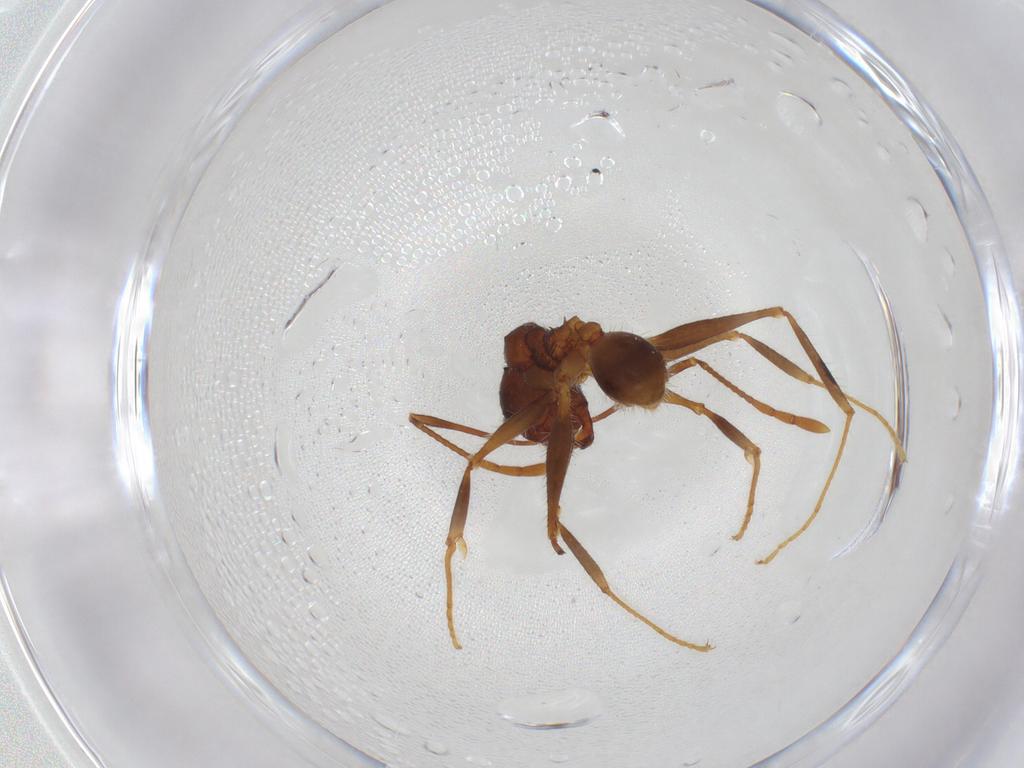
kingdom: Animalia
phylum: Arthropoda
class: Insecta
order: Hymenoptera
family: Formicidae
